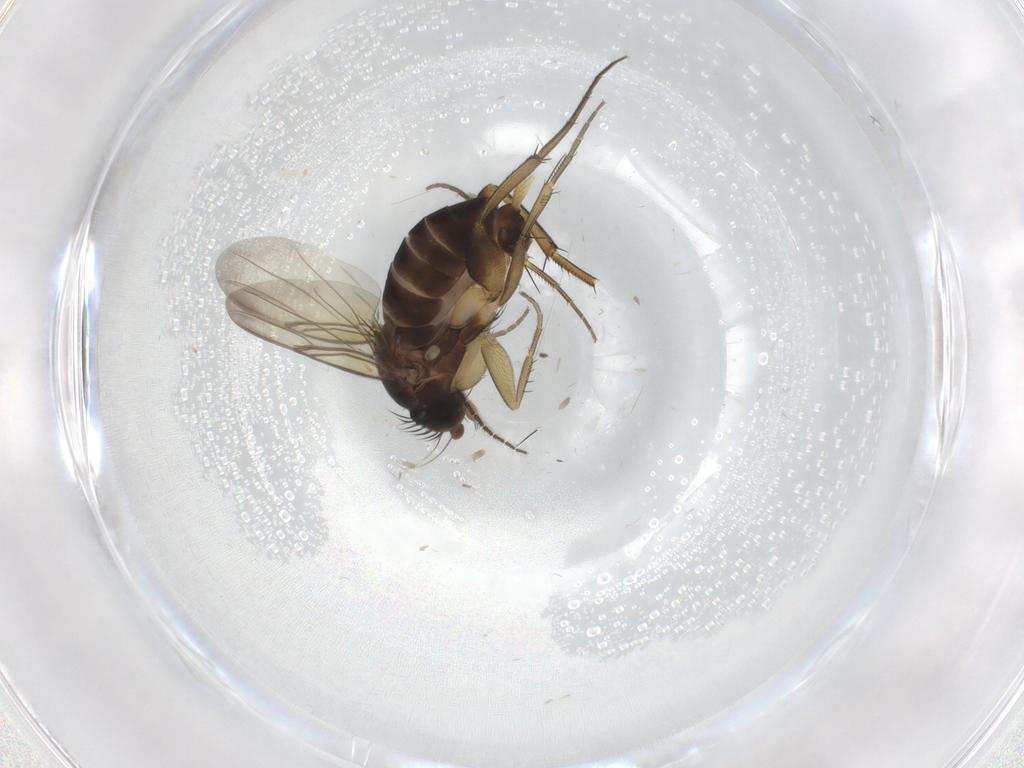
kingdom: Animalia
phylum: Arthropoda
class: Insecta
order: Diptera
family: Phoridae
